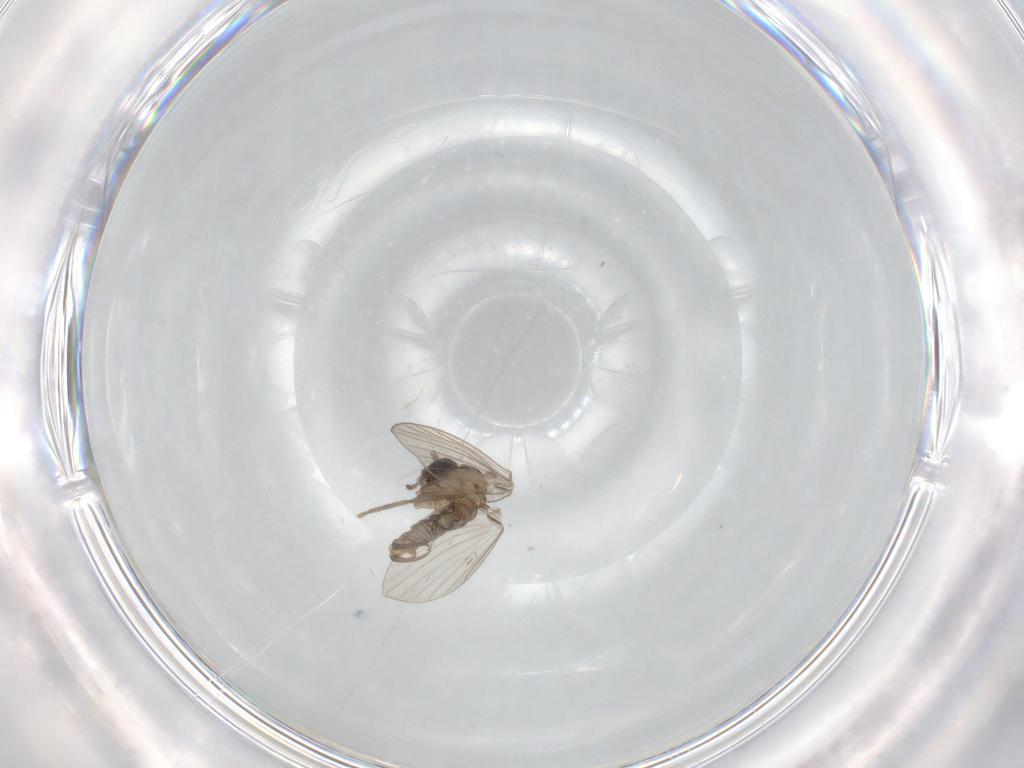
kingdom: Animalia
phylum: Arthropoda
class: Insecta
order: Diptera
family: Drosophilidae
